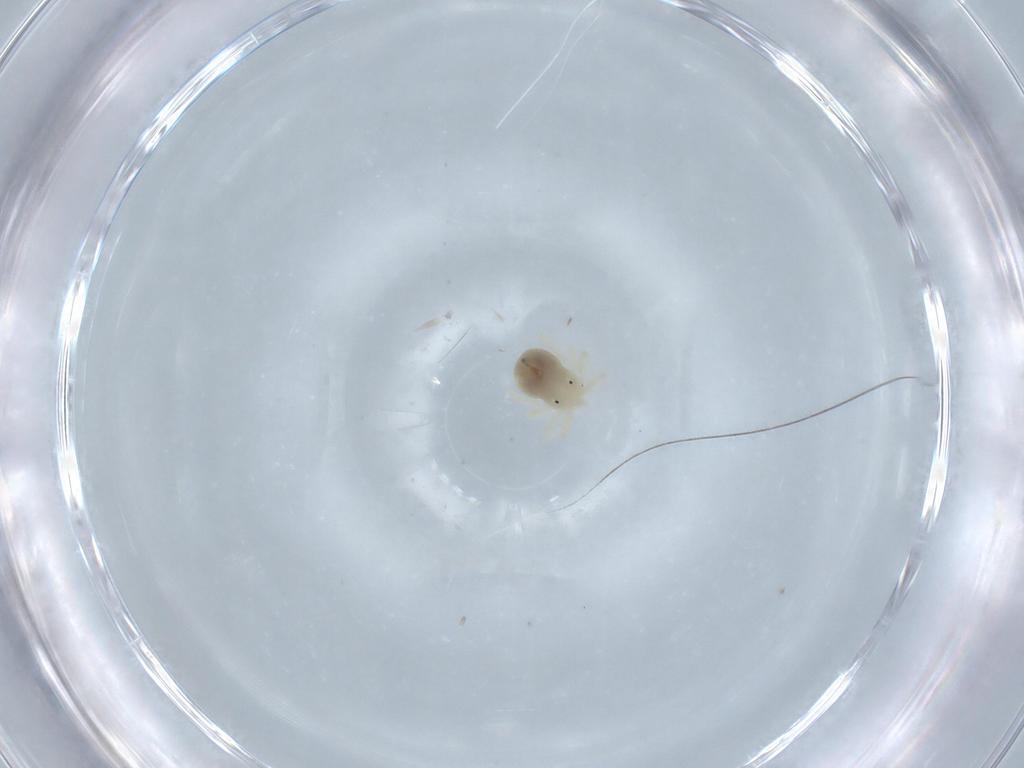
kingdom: Animalia
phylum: Arthropoda
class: Arachnida
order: Trombidiformes
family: Anystidae
